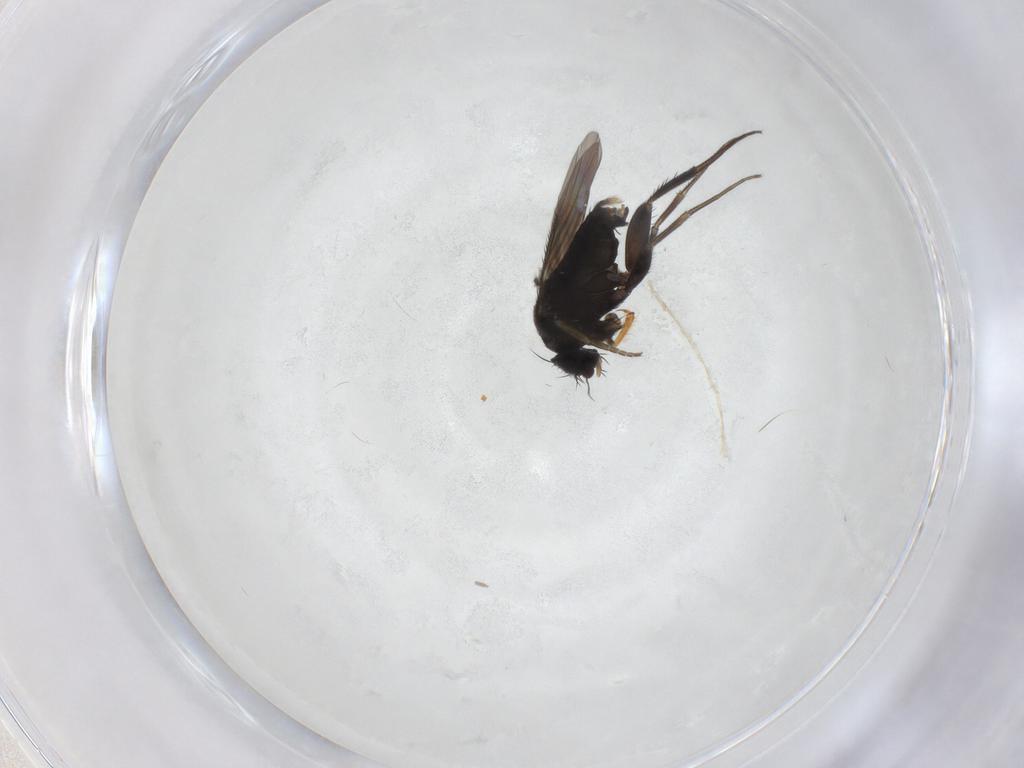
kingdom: Animalia
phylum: Arthropoda
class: Insecta
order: Diptera
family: Phoridae
